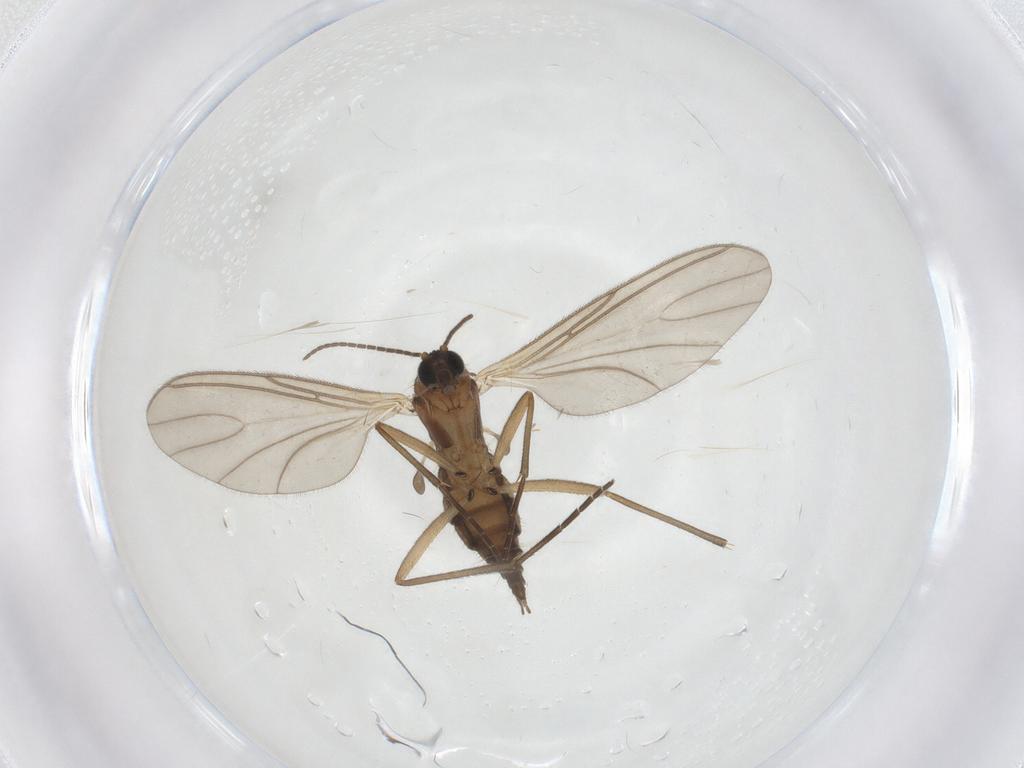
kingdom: Animalia
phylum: Arthropoda
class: Insecta
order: Diptera
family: Sciaridae
